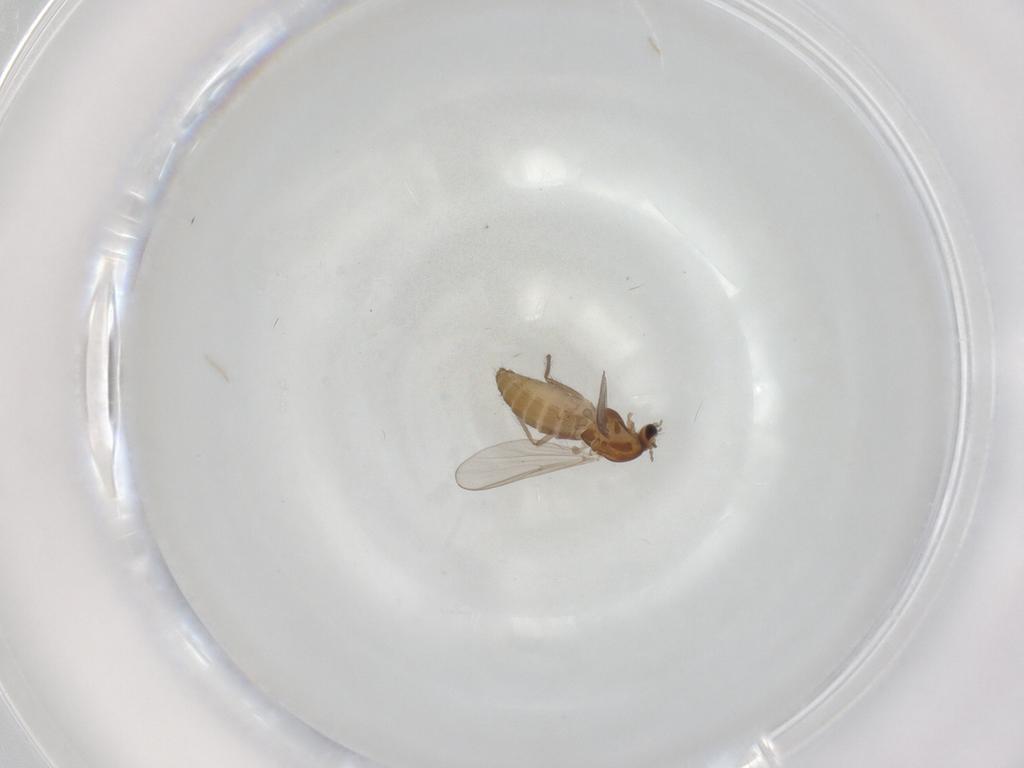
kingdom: Animalia
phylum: Arthropoda
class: Insecta
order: Diptera
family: Chironomidae
